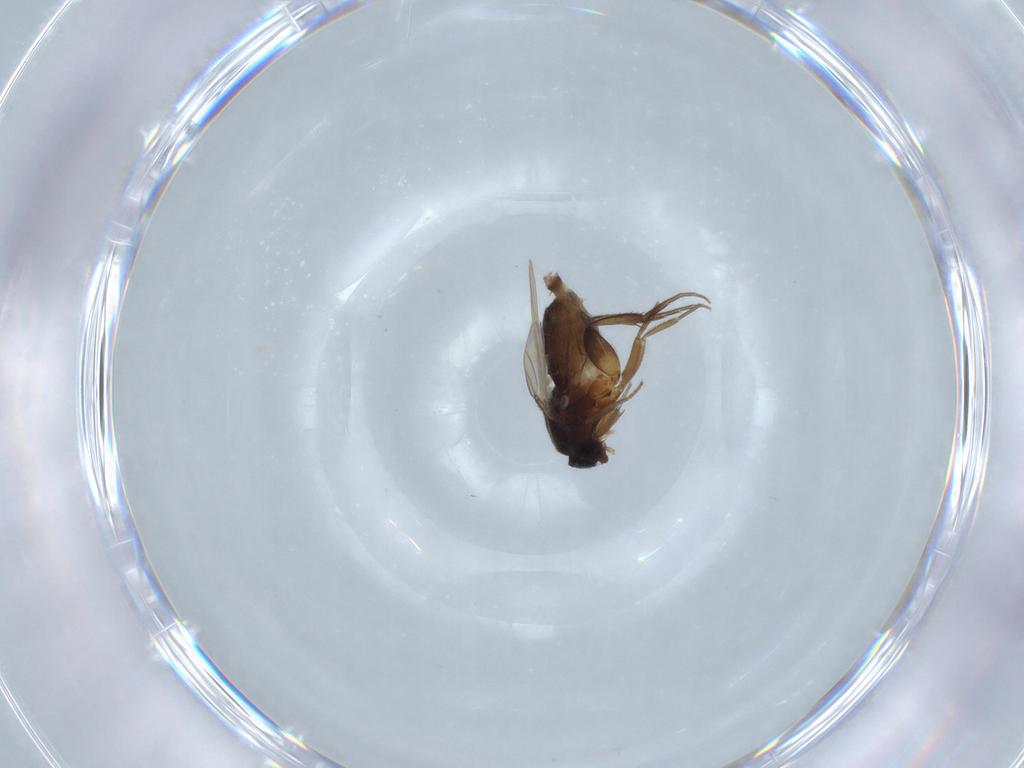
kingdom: Animalia
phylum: Arthropoda
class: Insecta
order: Diptera
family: Phoridae
